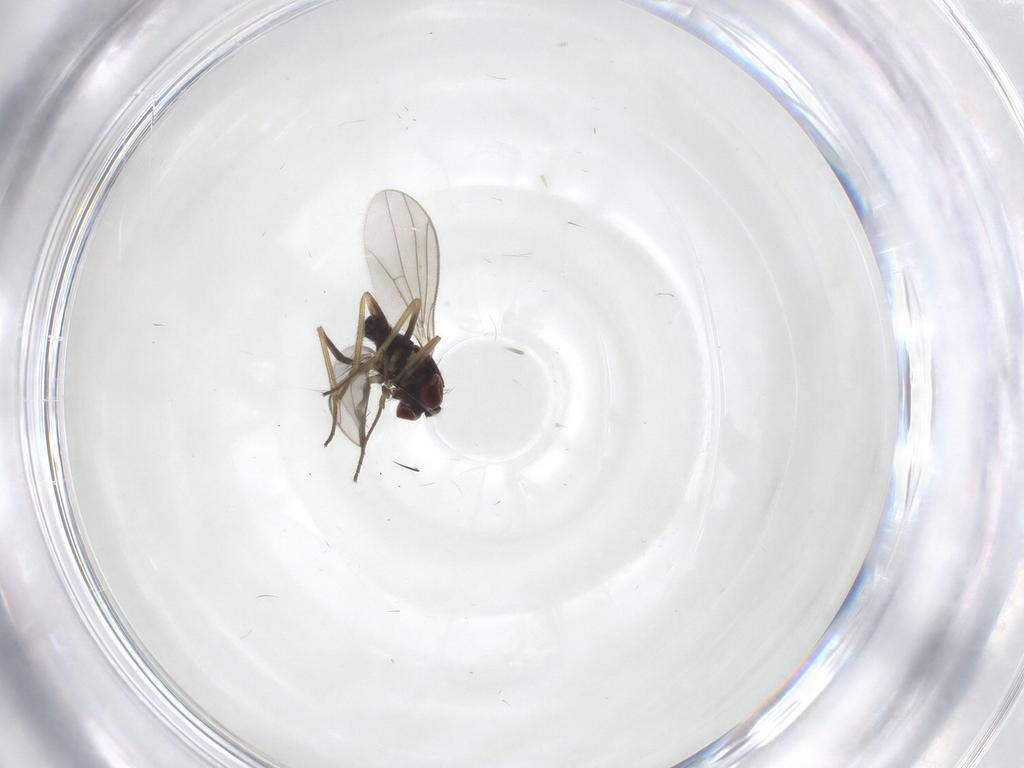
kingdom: Animalia
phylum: Arthropoda
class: Insecta
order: Diptera
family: Dolichopodidae
